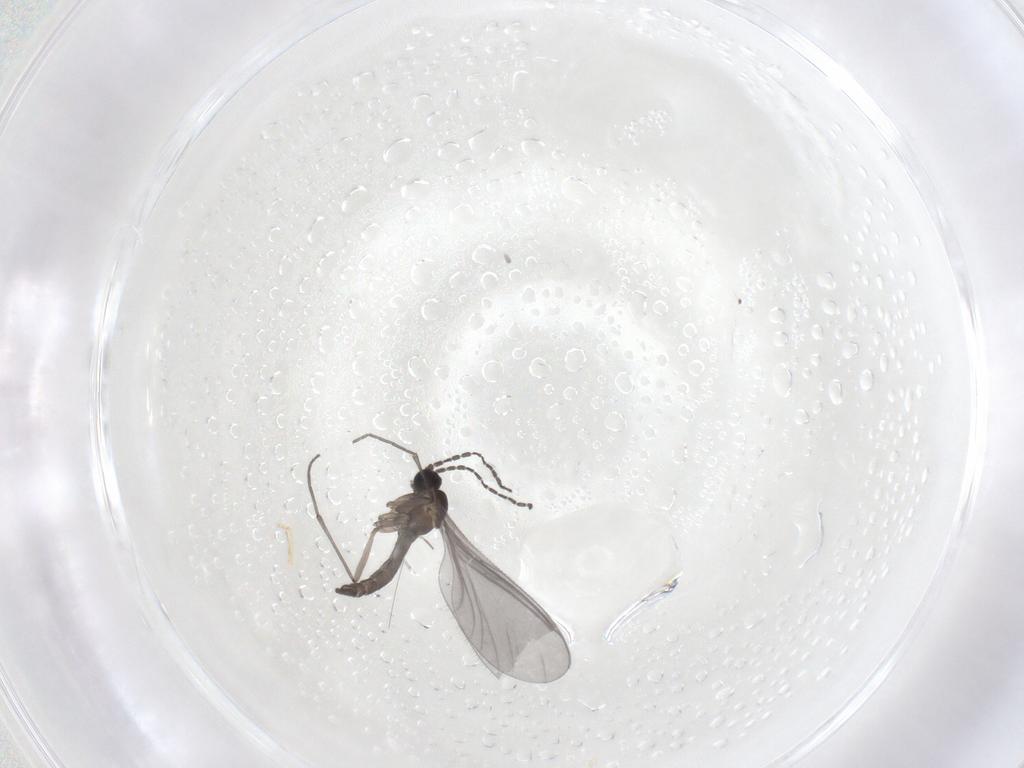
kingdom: Animalia
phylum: Arthropoda
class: Insecta
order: Diptera
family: Sciaridae
